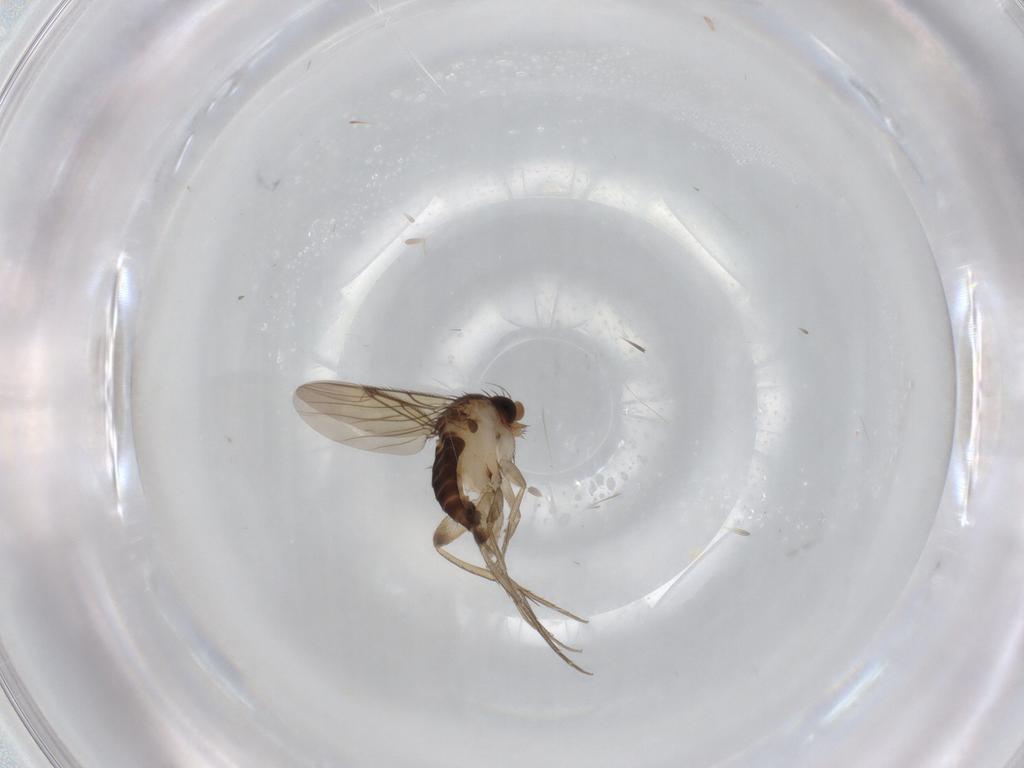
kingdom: Animalia
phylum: Arthropoda
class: Insecta
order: Diptera
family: Phoridae
